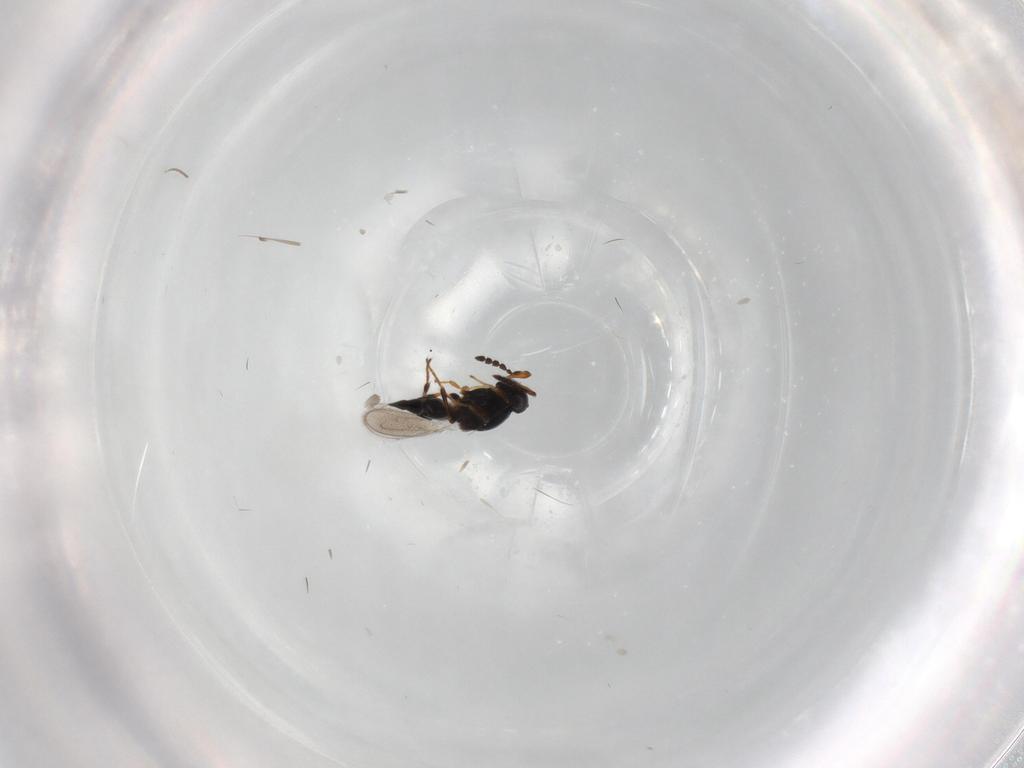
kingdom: Animalia
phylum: Arthropoda
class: Insecta
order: Hymenoptera
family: Platygastridae
